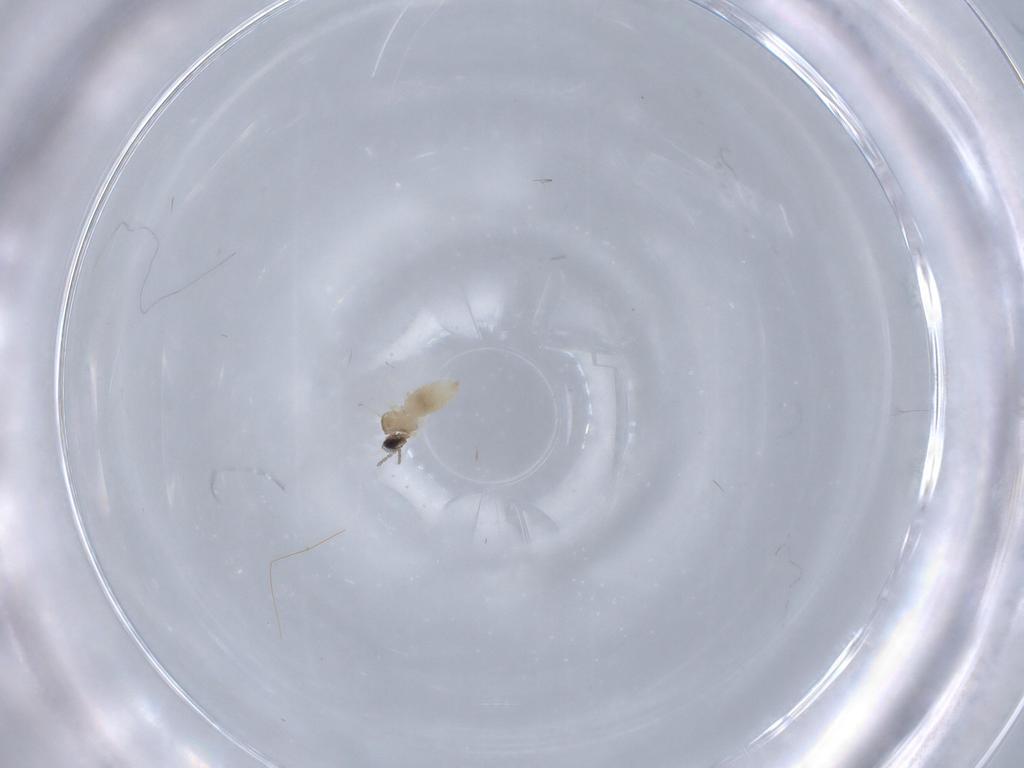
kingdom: Animalia
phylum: Arthropoda
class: Insecta
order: Diptera
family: Cecidomyiidae
